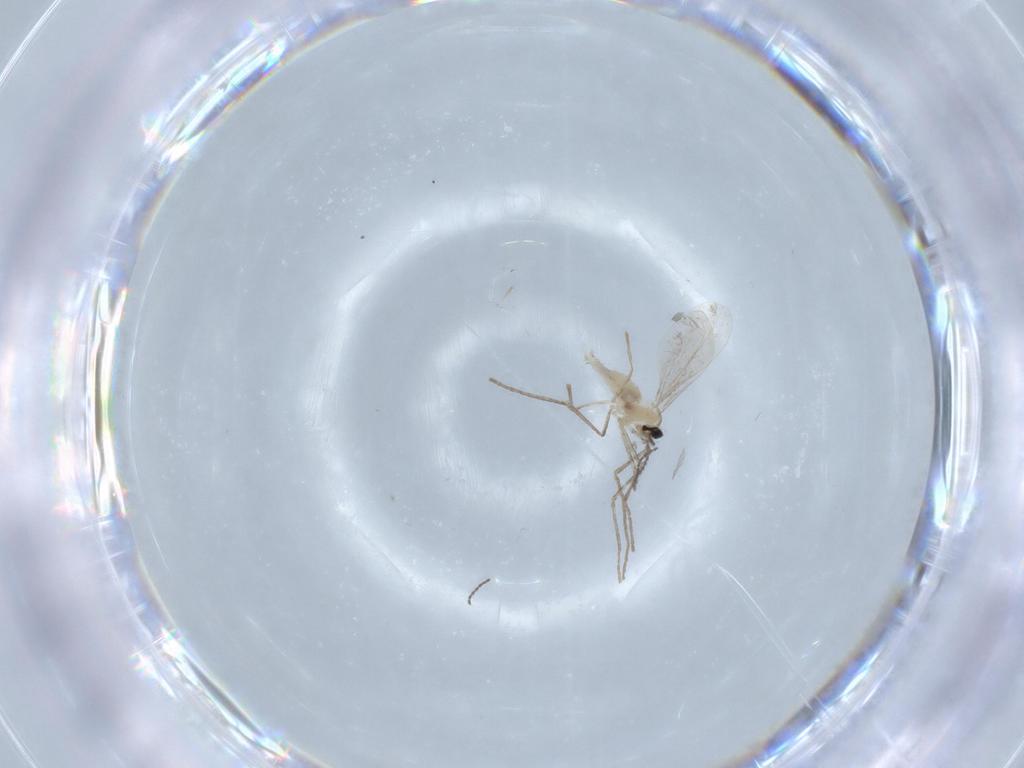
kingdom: Animalia
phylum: Arthropoda
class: Insecta
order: Diptera
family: Cecidomyiidae
